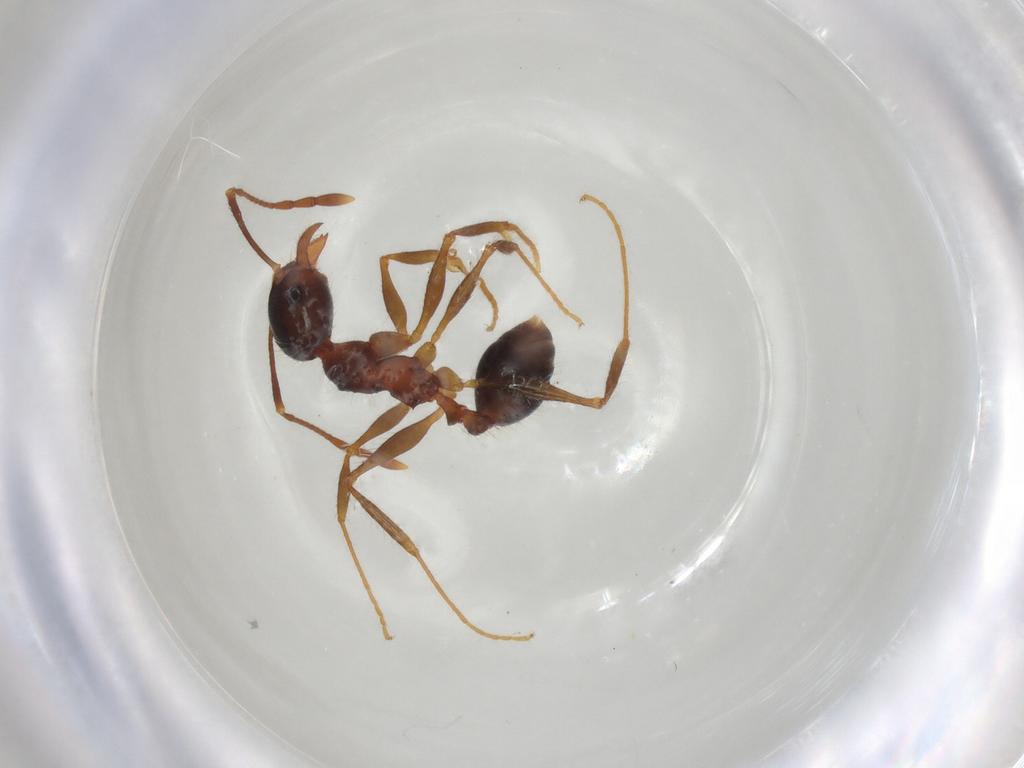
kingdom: Animalia
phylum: Arthropoda
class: Insecta
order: Hymenoptera
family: Formicidae
